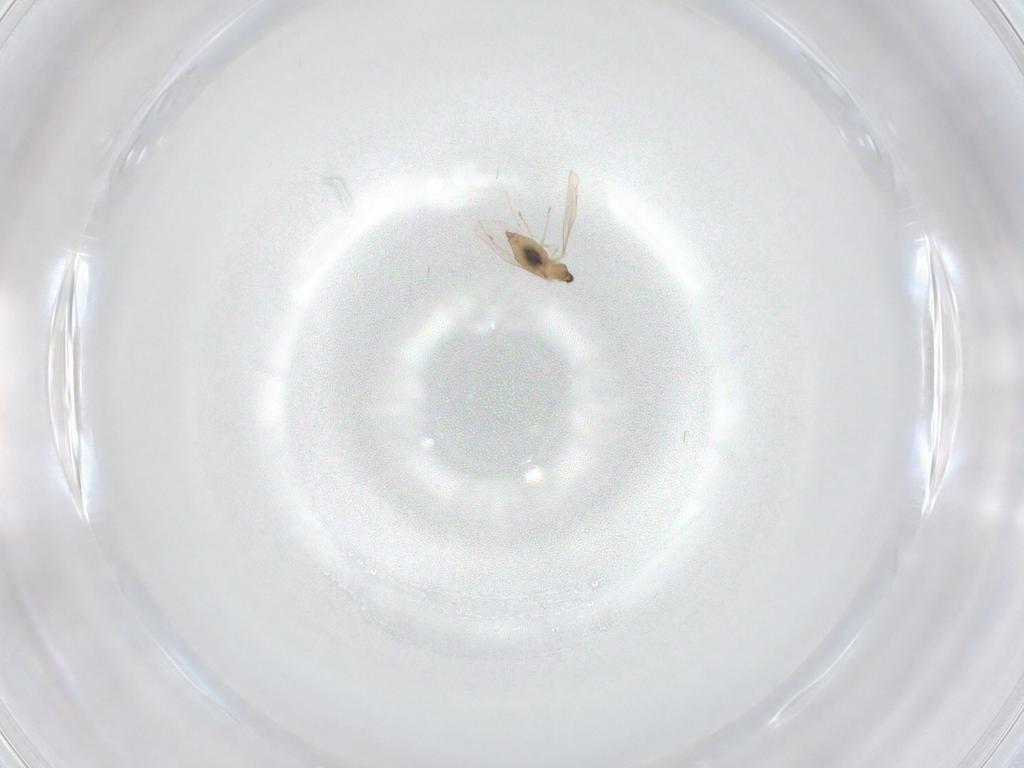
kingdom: Animalia
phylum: Arthropoda
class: Insecta
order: Diptera
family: Cecidomyiidae
